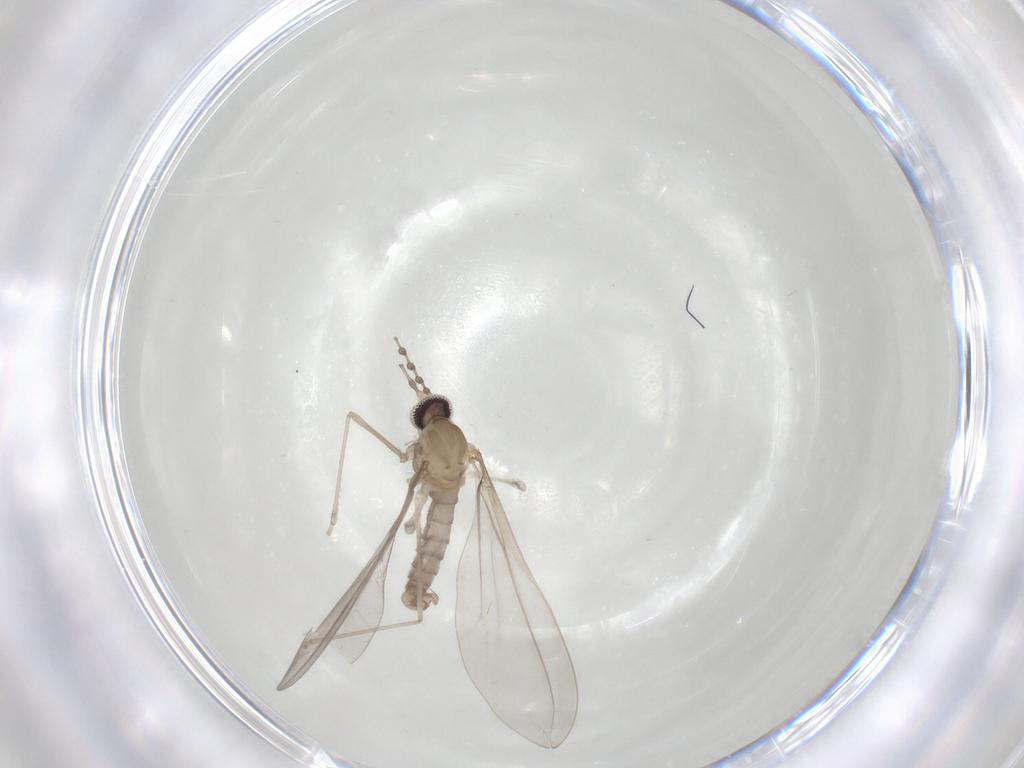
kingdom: Animalia
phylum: Arthropoda
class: Insecta
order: Diptera
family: Cecidomyiidae
